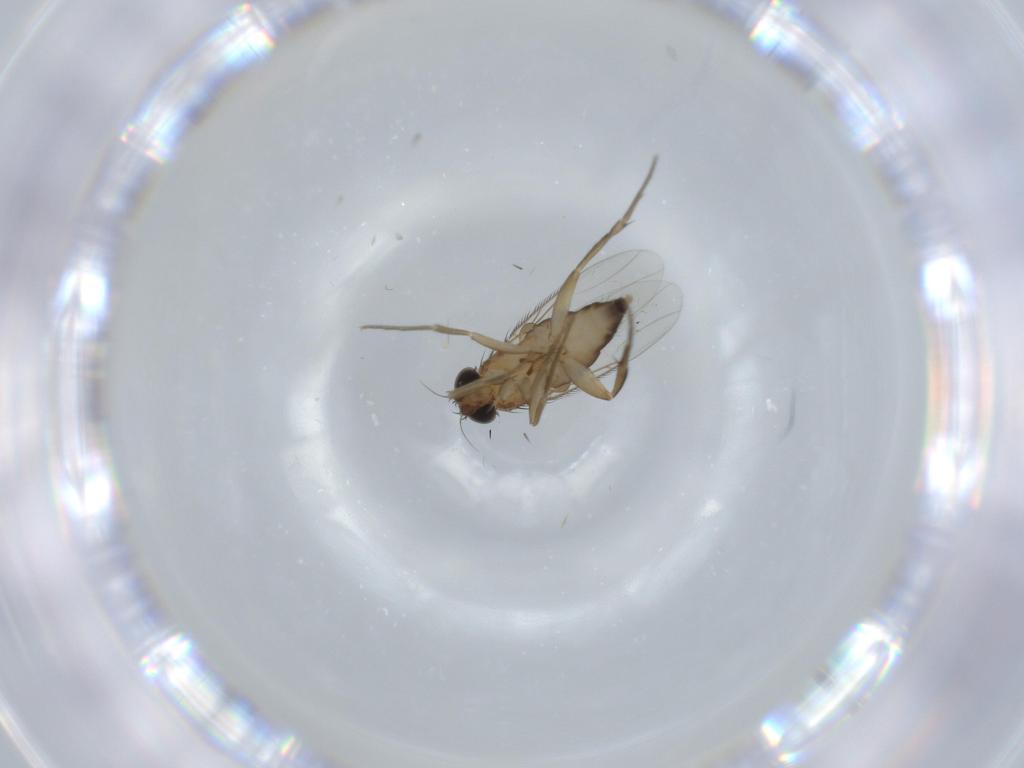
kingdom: Animalia
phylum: Arthropoda
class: Insecta
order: Diptera
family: Phoridae
